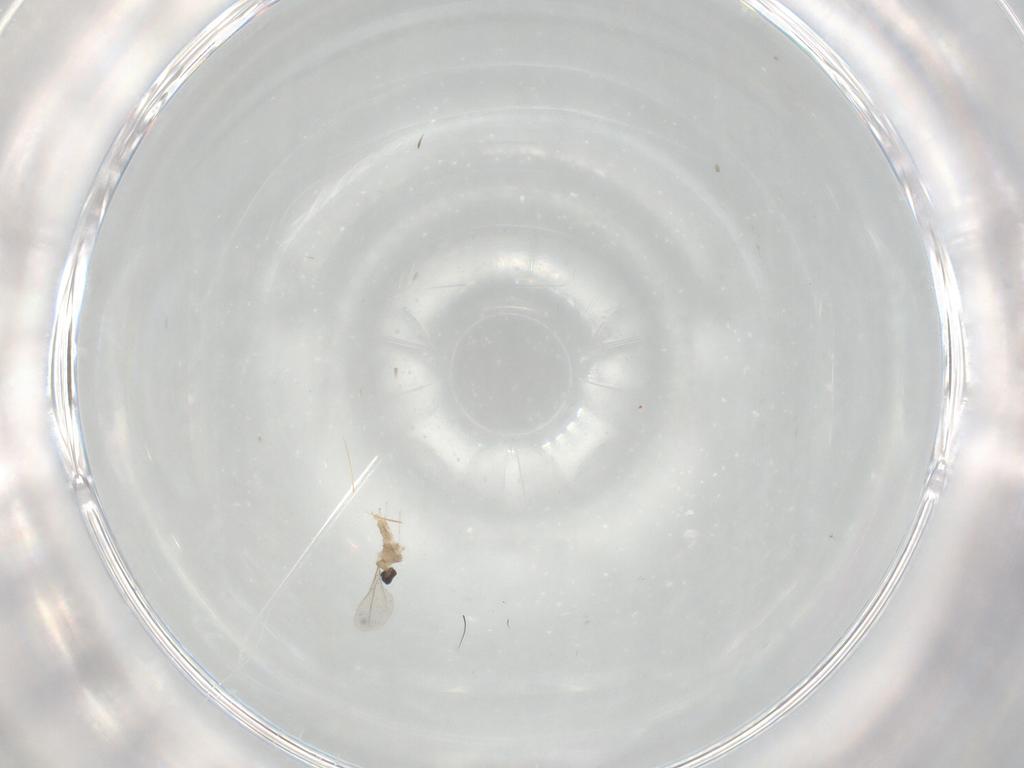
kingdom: Animalia
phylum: Arthropoda
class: Insecta
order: Diptera
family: Cecidomyiidae
